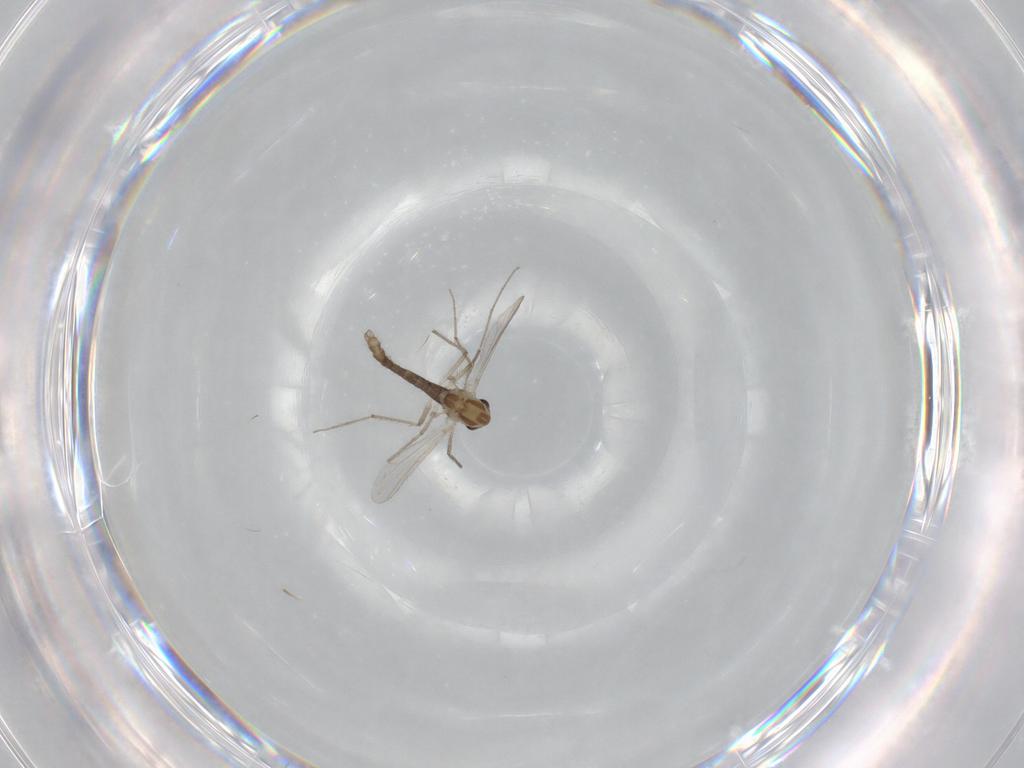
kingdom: Animalia
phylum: Arthropoda
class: Insecta
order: Diptera
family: Chironomidae
